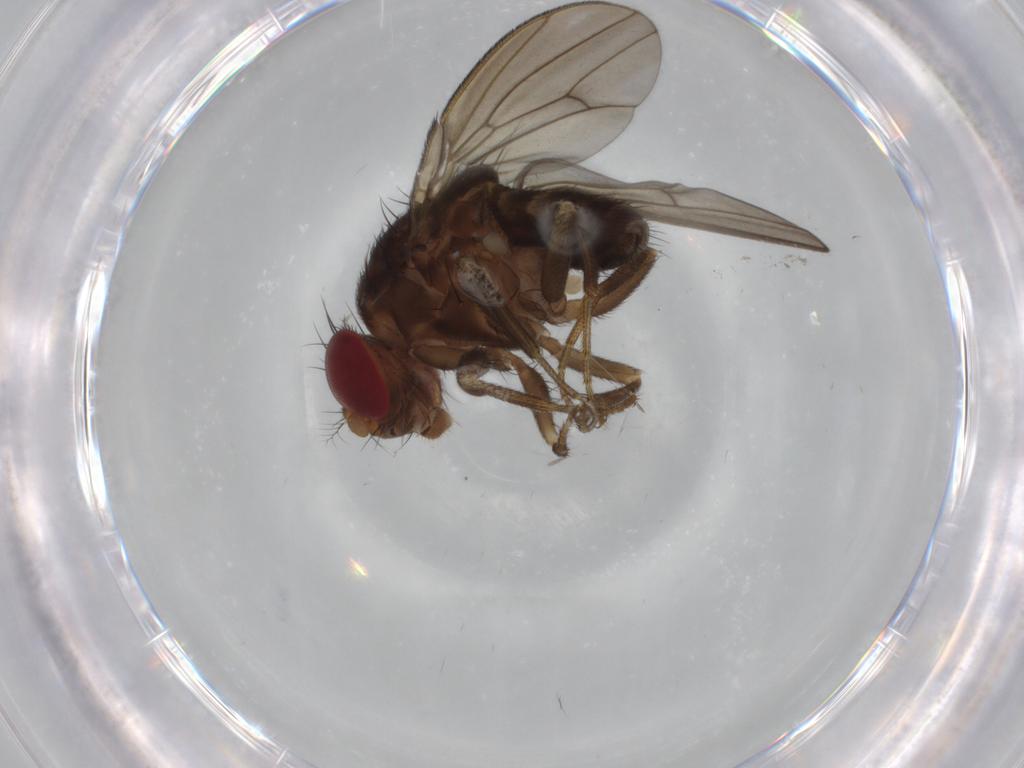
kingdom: Animalia
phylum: Arthropoda
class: Insecta
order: Diptera
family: Drosophilidae
